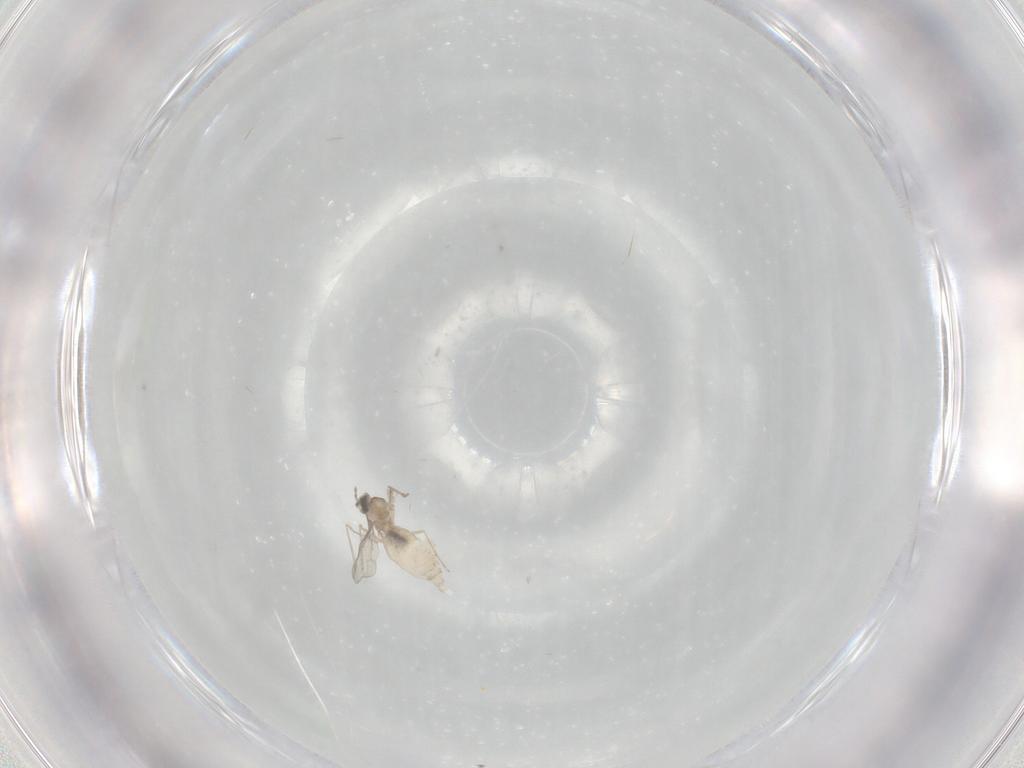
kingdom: Animalia
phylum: Arthropoda
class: Insecta
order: Diptera
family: Cecidomyiidae
